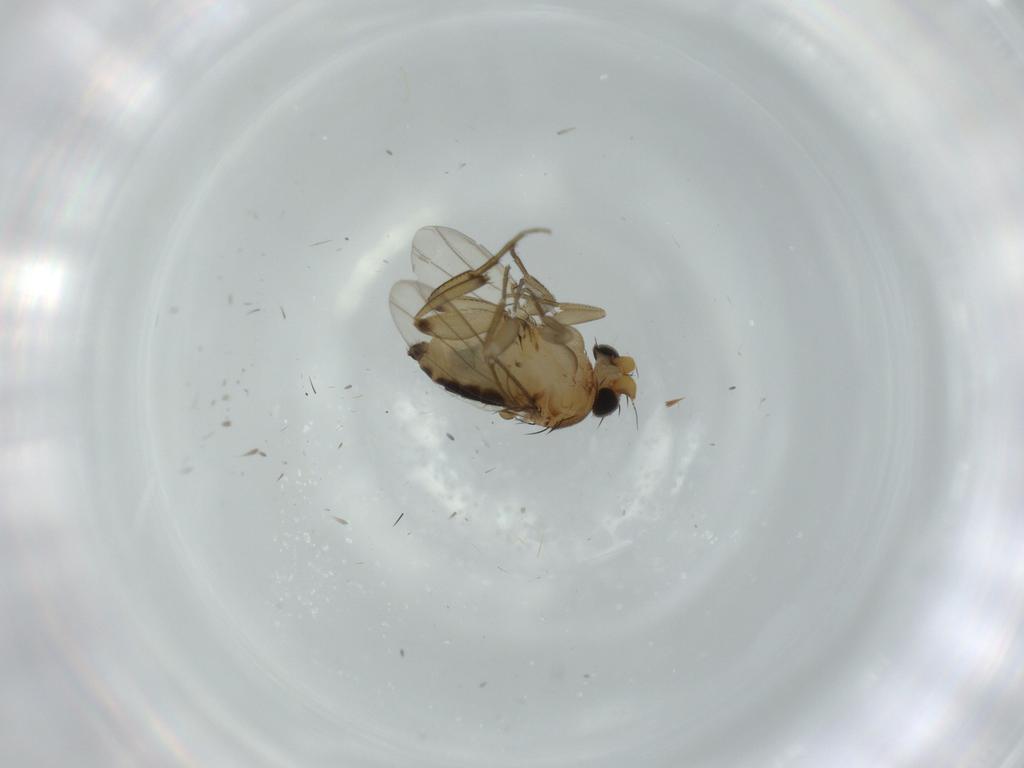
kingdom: Animalia
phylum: Arthropoda
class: Insecta
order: Diptera
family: Chironomidae
